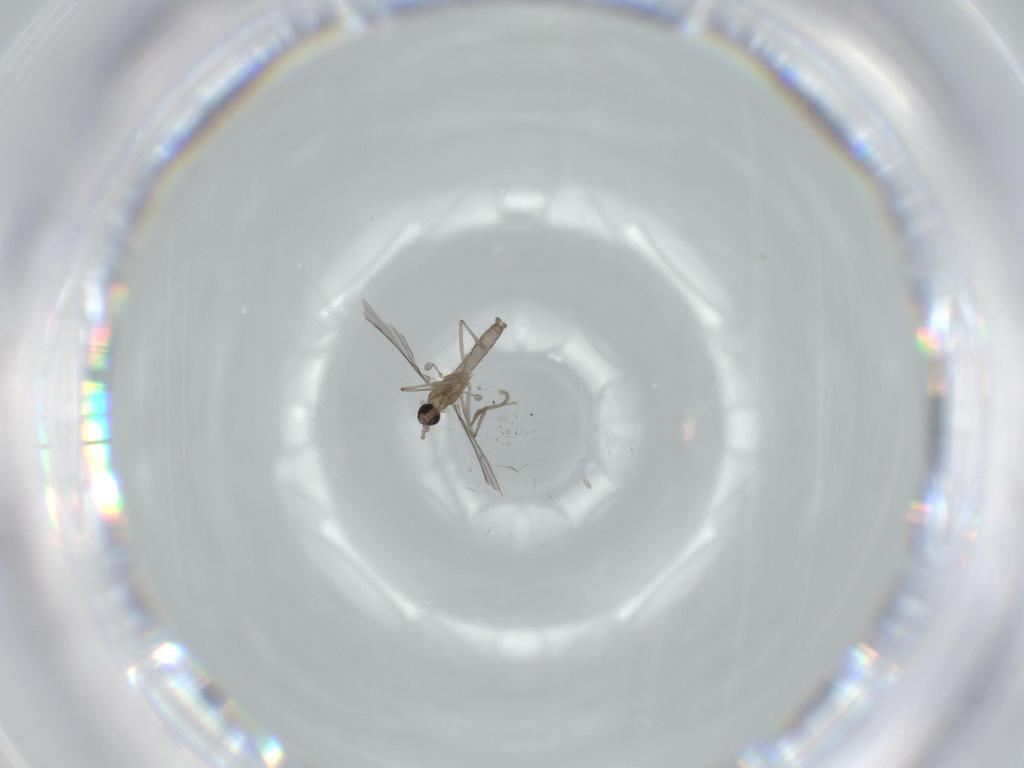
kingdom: Animalia
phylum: Arthropoda
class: Insecta
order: Diptera
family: Cecidomyiidae
